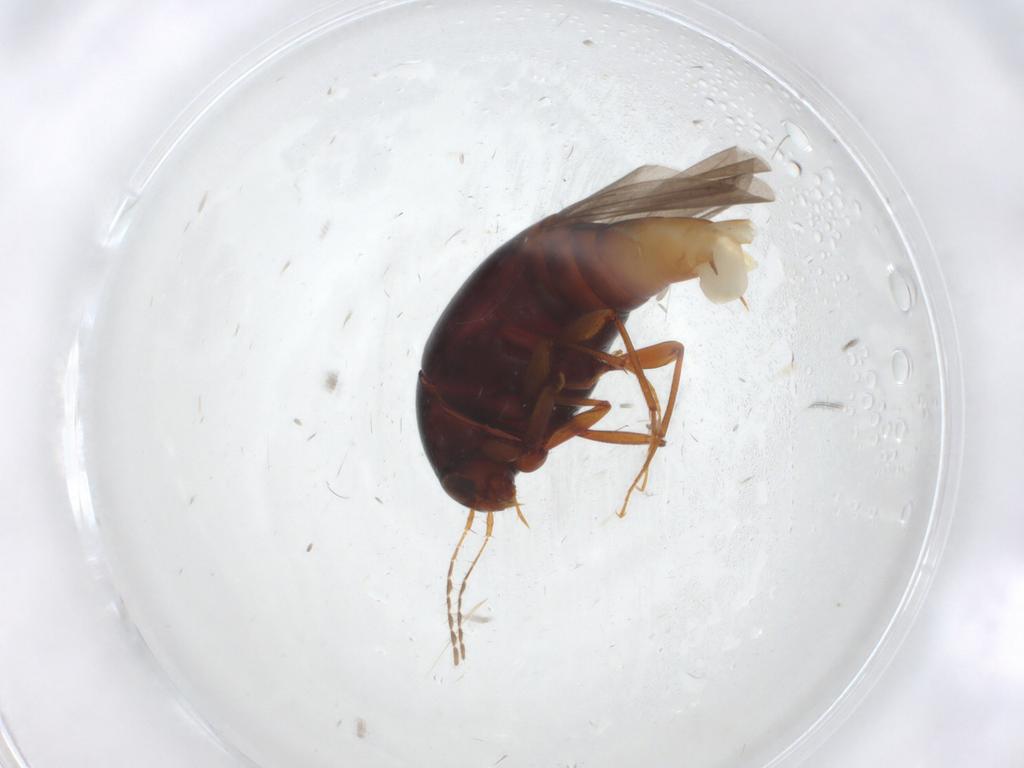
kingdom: Animalia
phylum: Arthropoda
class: Insecta
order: Coleoptera
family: Staphylinidae
